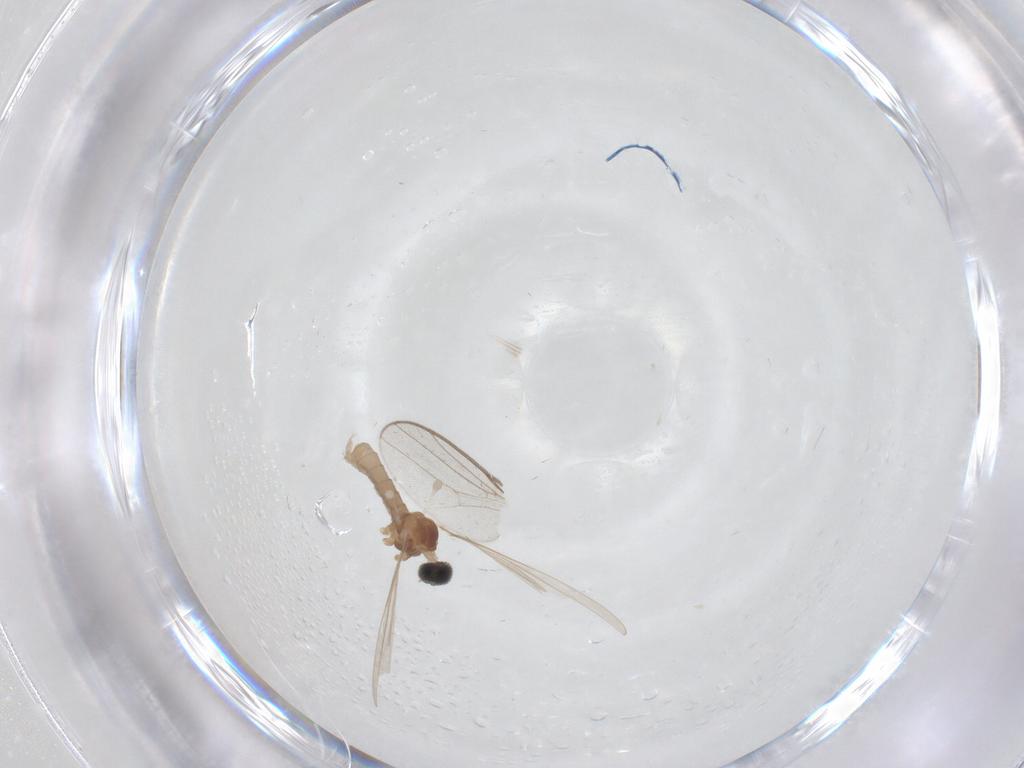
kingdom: Animalia
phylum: Arthropoda
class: Insecta
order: Diptera
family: Cecidomyiidae
